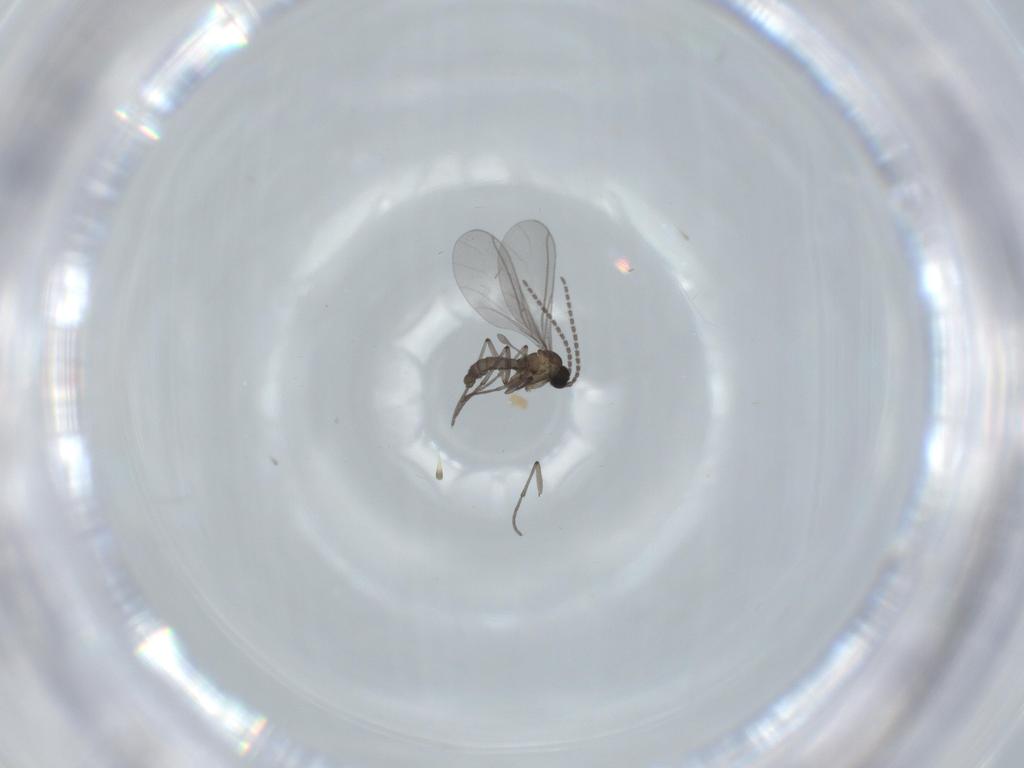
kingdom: Animalia
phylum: Arthropoda
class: Insecta
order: Diptera
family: Sciaridae
